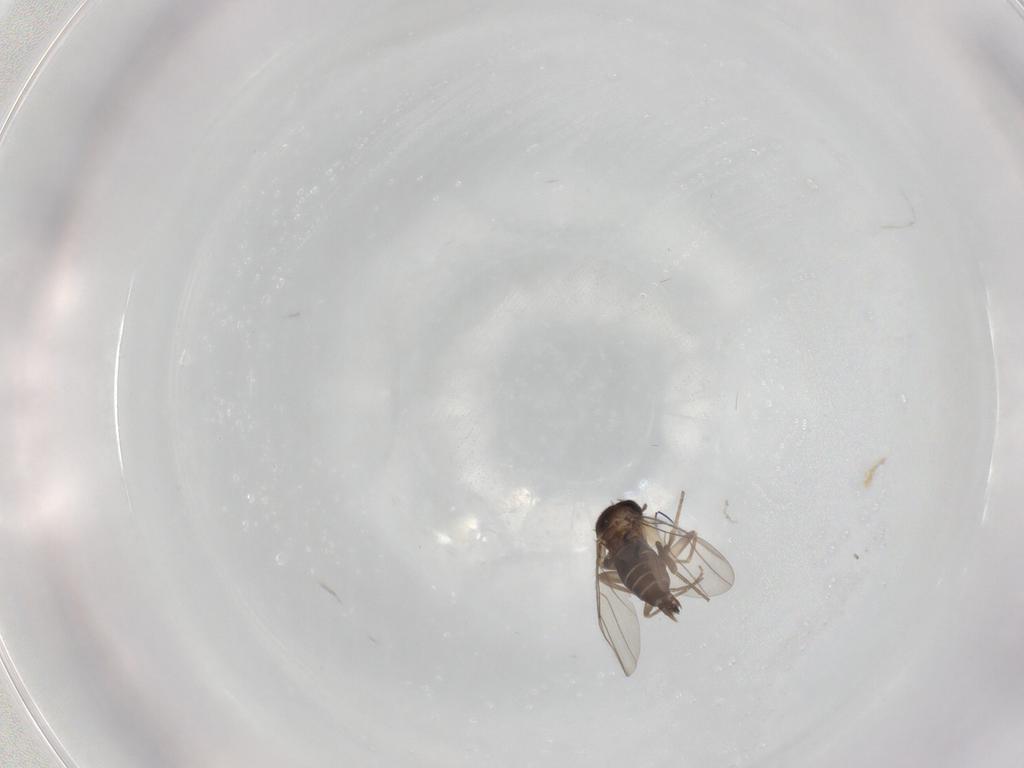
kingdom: Animalia
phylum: Arthropoda
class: Insecta
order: Diptera
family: Phoridae
